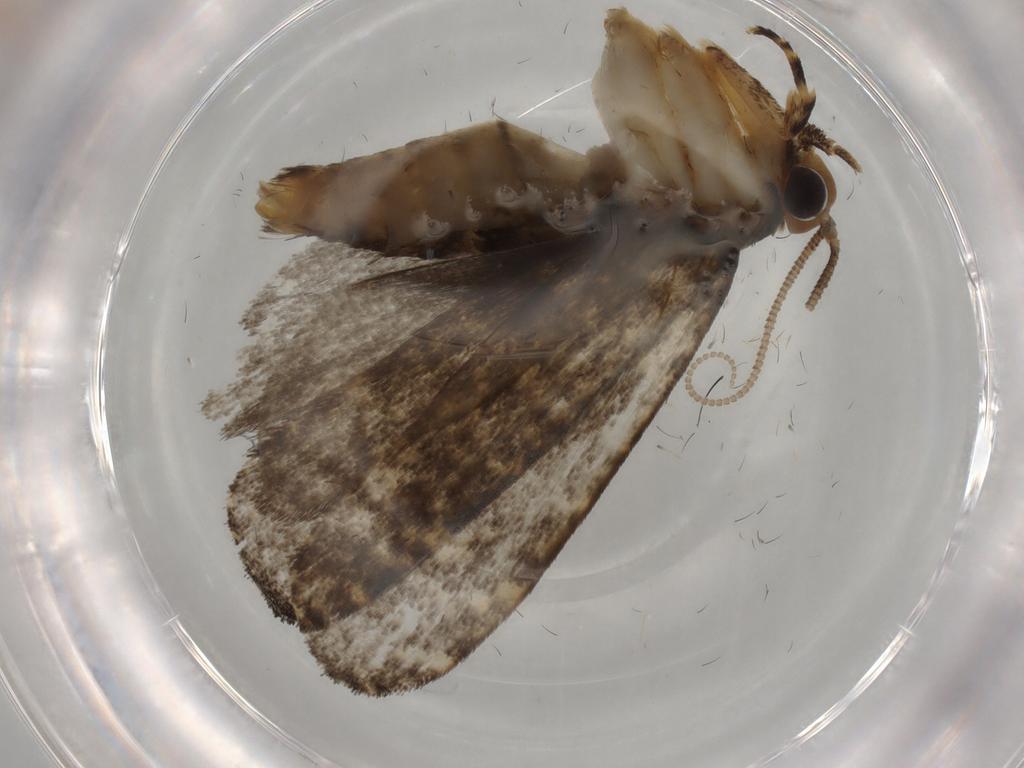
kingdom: Animalia
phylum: Arthropoda
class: Insecta
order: Lepidoptera
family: Tineidae
